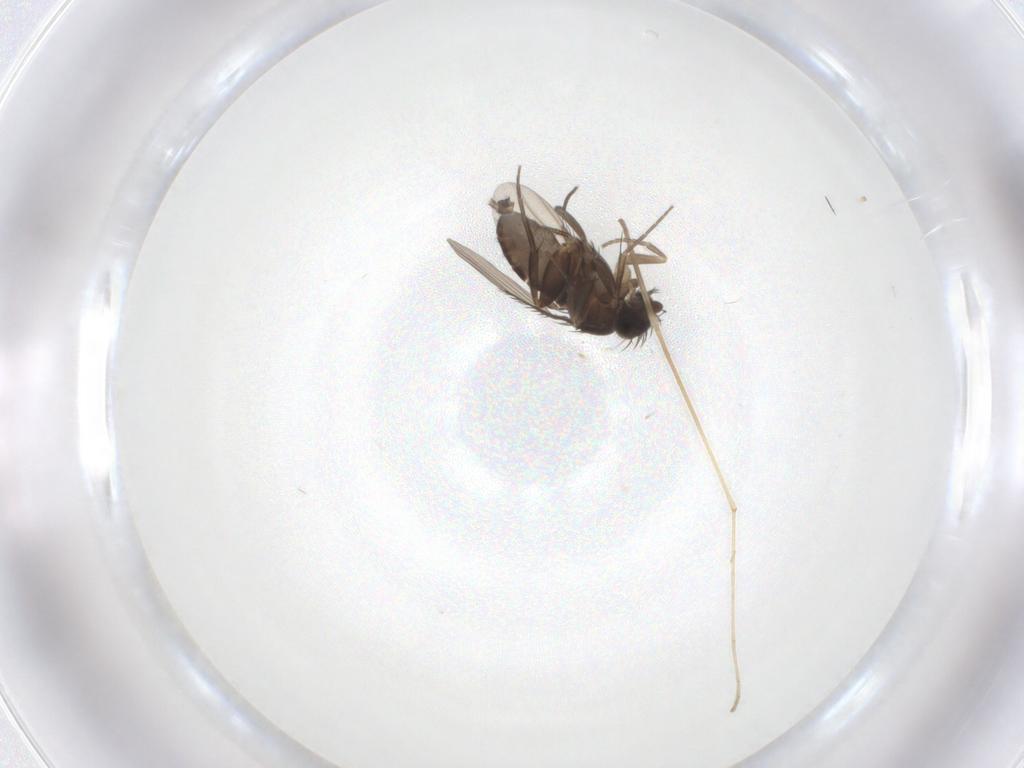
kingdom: Animalia
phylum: Arthropoda
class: Insecta
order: Diptera
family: Phoridae
